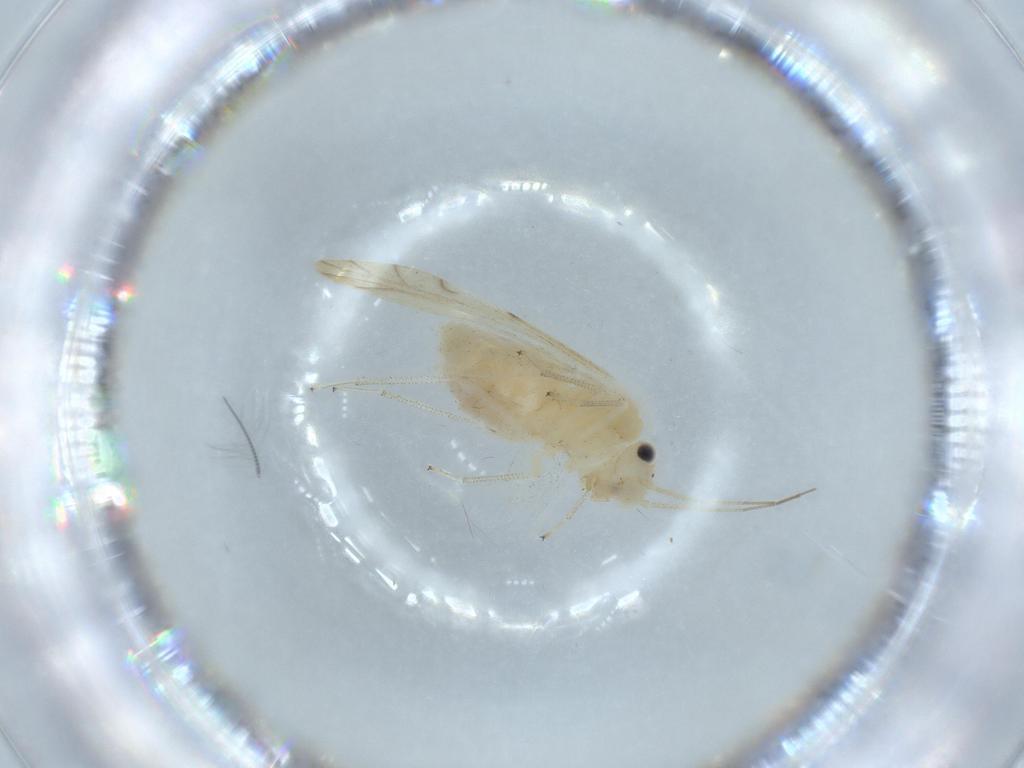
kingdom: Animalia
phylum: Arthropoda
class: Insecta
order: Psocodea
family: Caeciliusidae
